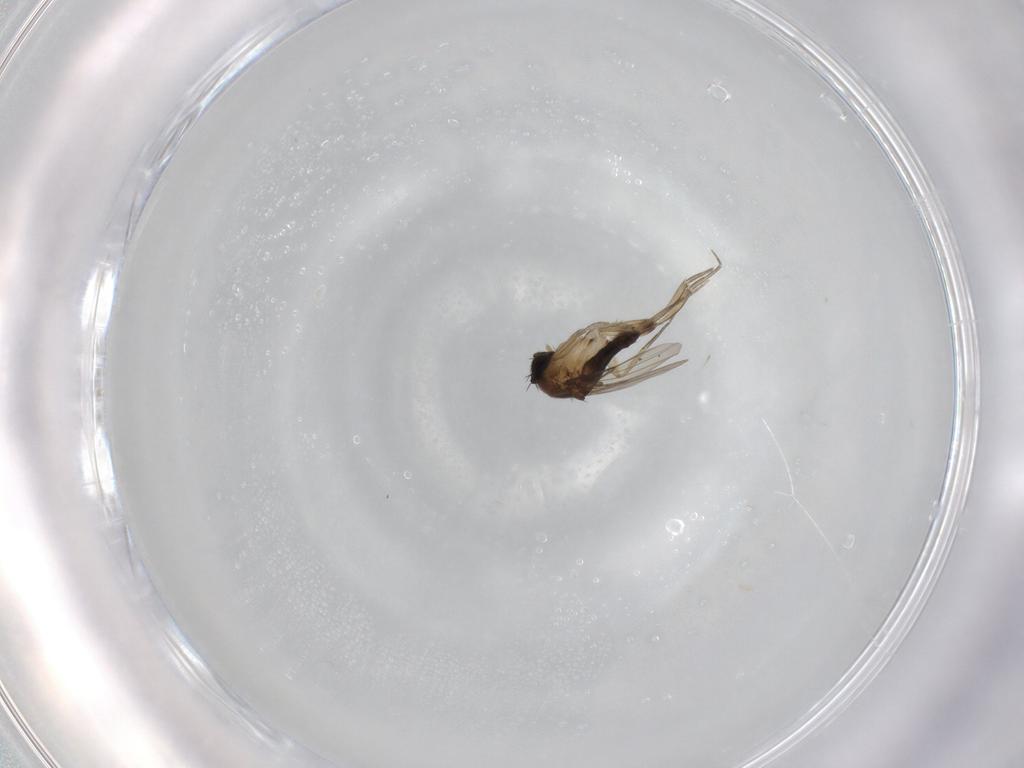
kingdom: Animalia
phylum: Arthropoda
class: Insecta
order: Diptera
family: Phoridae
